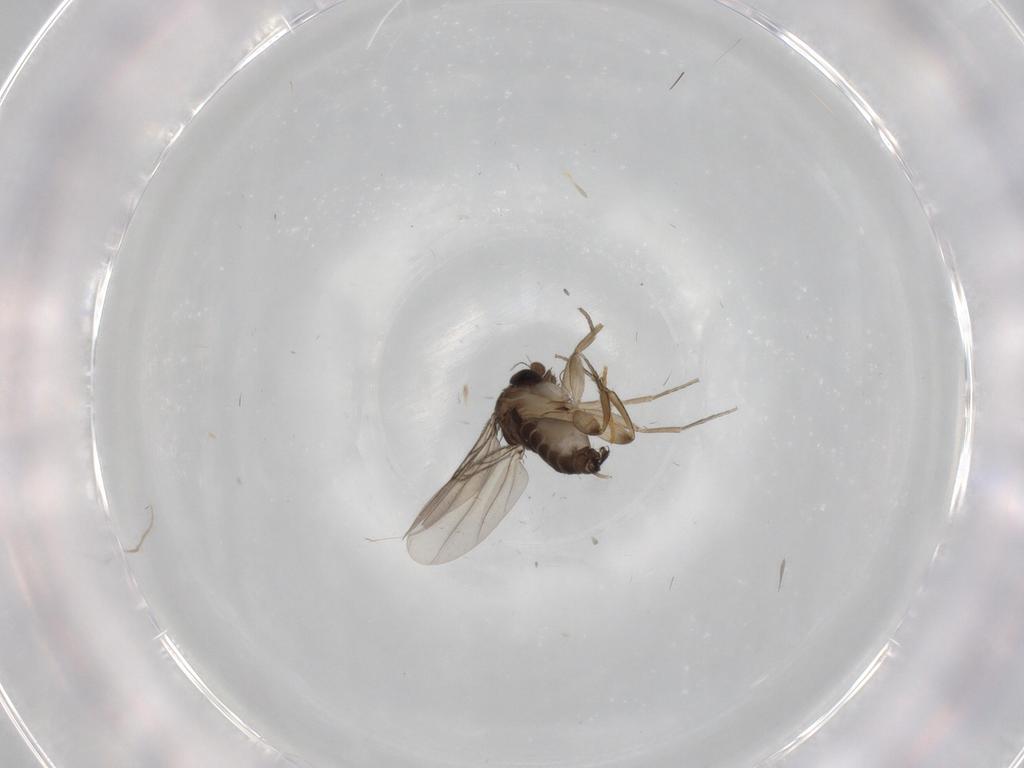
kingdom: Animalia
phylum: Arthropoda
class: Insecta
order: Diptera
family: Phoridae
